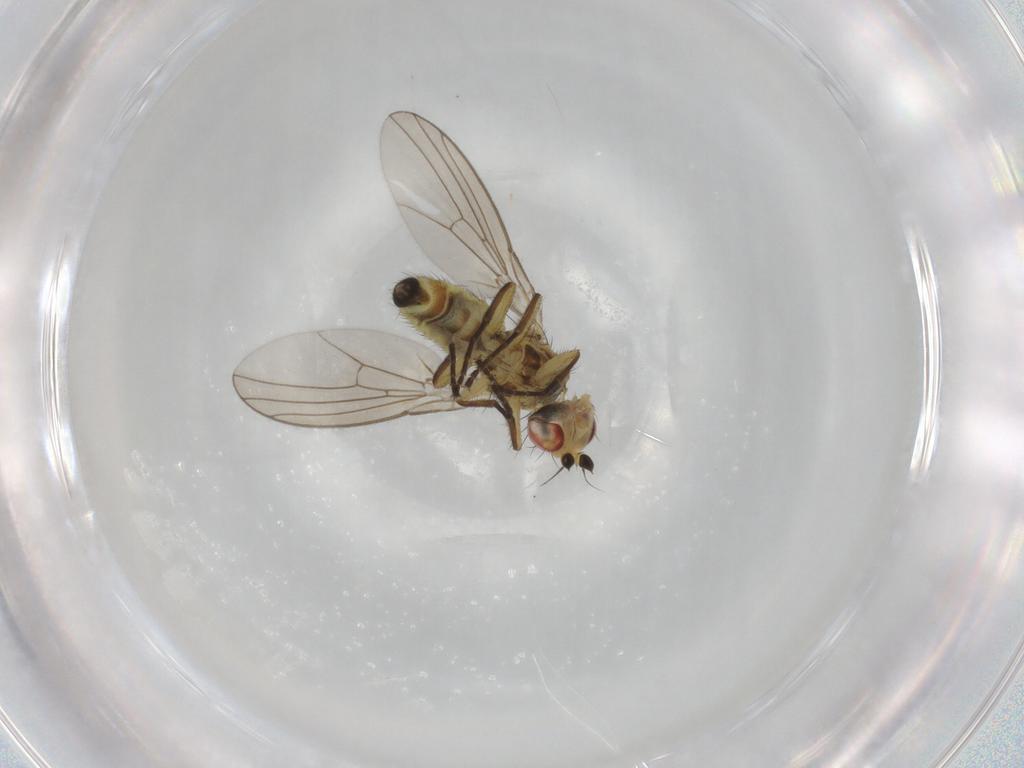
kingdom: Animalia
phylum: Arthropoda
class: Insecta
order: Diptera
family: Agromyzidae
